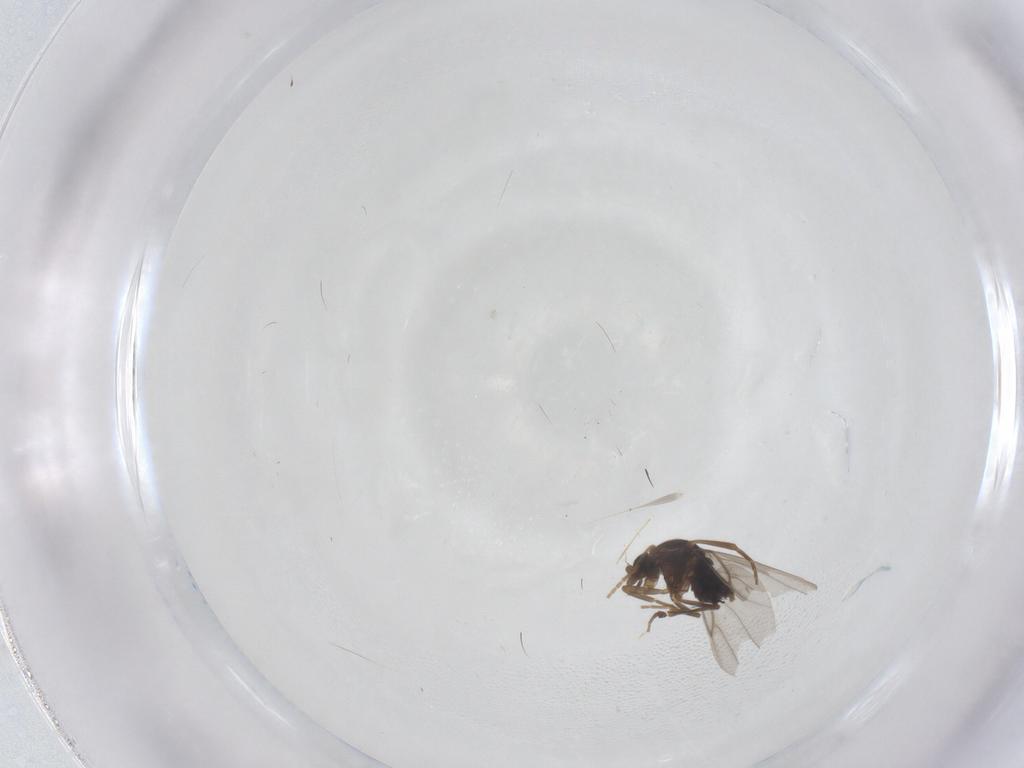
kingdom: Animalia
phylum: Arthropoda
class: Insecta
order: Diptera
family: Phoridae
